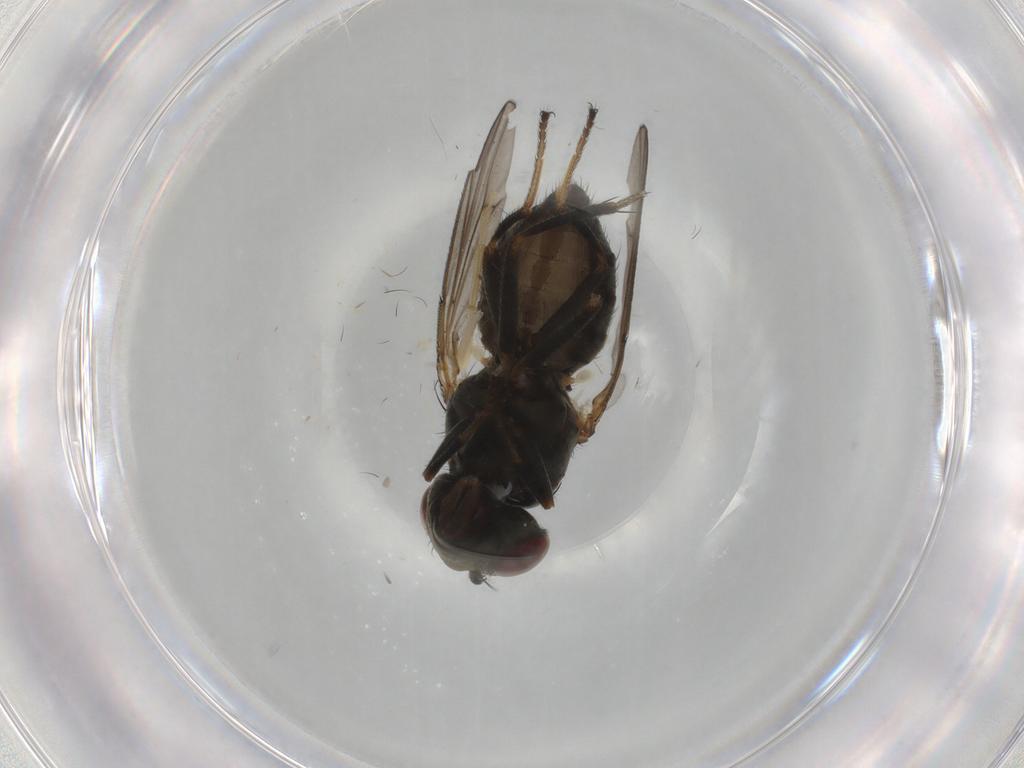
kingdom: Animalia
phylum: Arthropoda
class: Insecta
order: Diptera
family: Ephydridae
